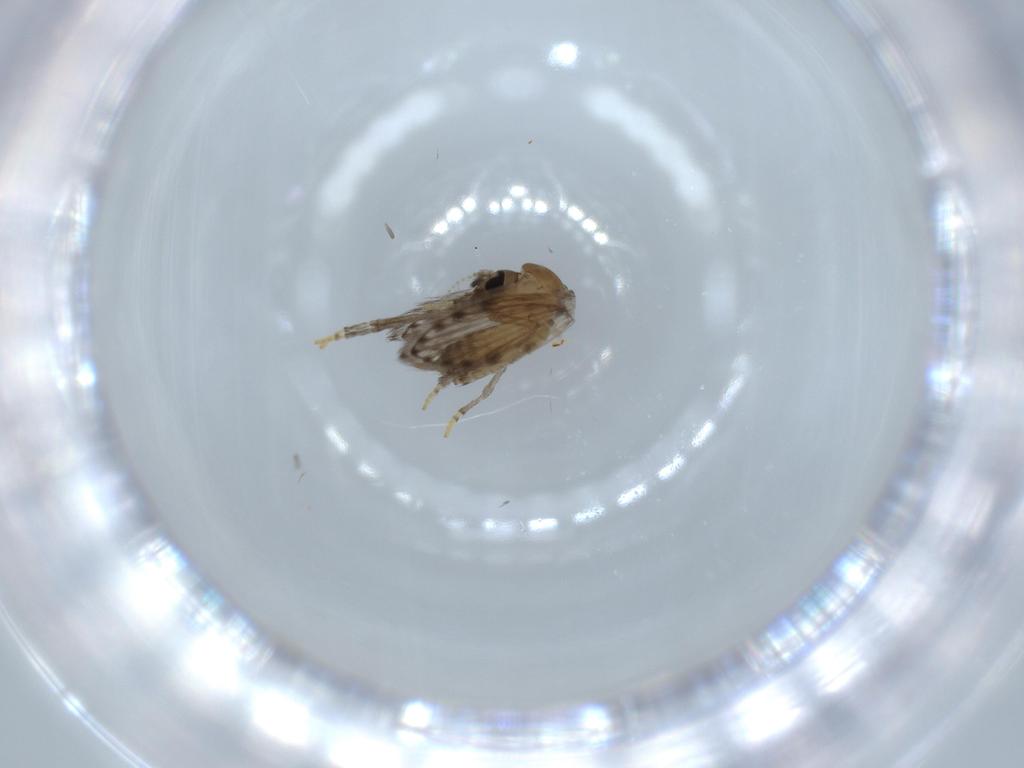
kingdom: Animalia
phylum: Arthropoda
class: Insecta
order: Diptera
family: Psychodidae
